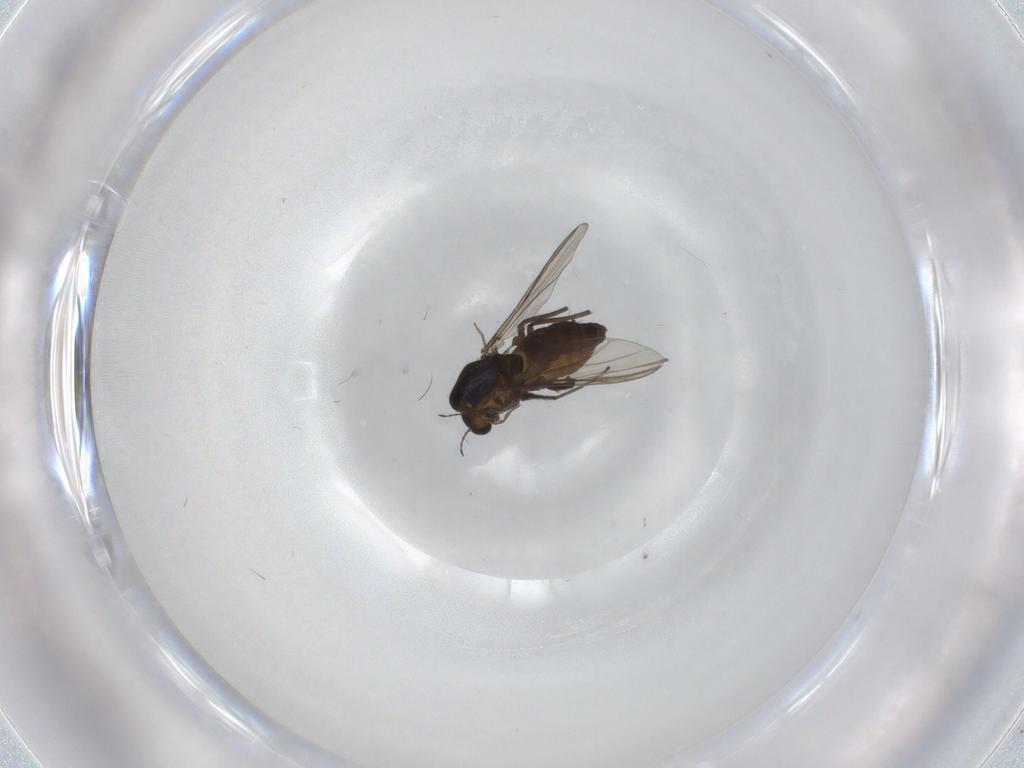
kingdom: Animalia
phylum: Arthropoda
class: Insecta
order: Diptera
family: Chironomidae
